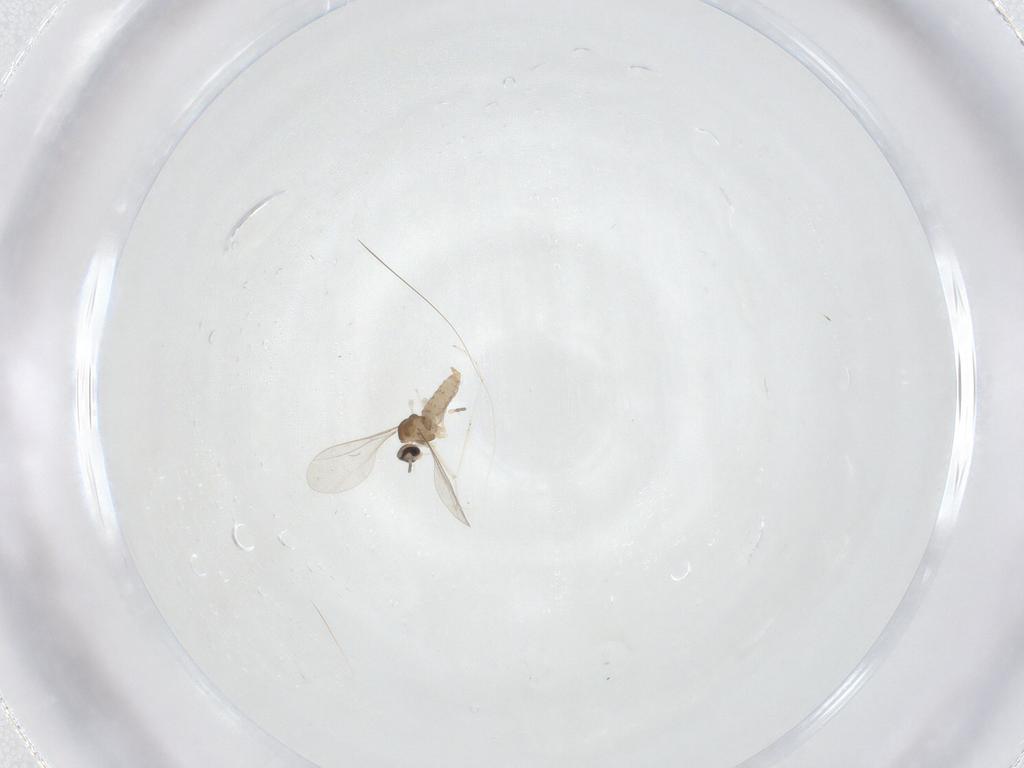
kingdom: Animalia
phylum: Arthropoda
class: Insecta
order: Diptera
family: Cecidomyiidae
